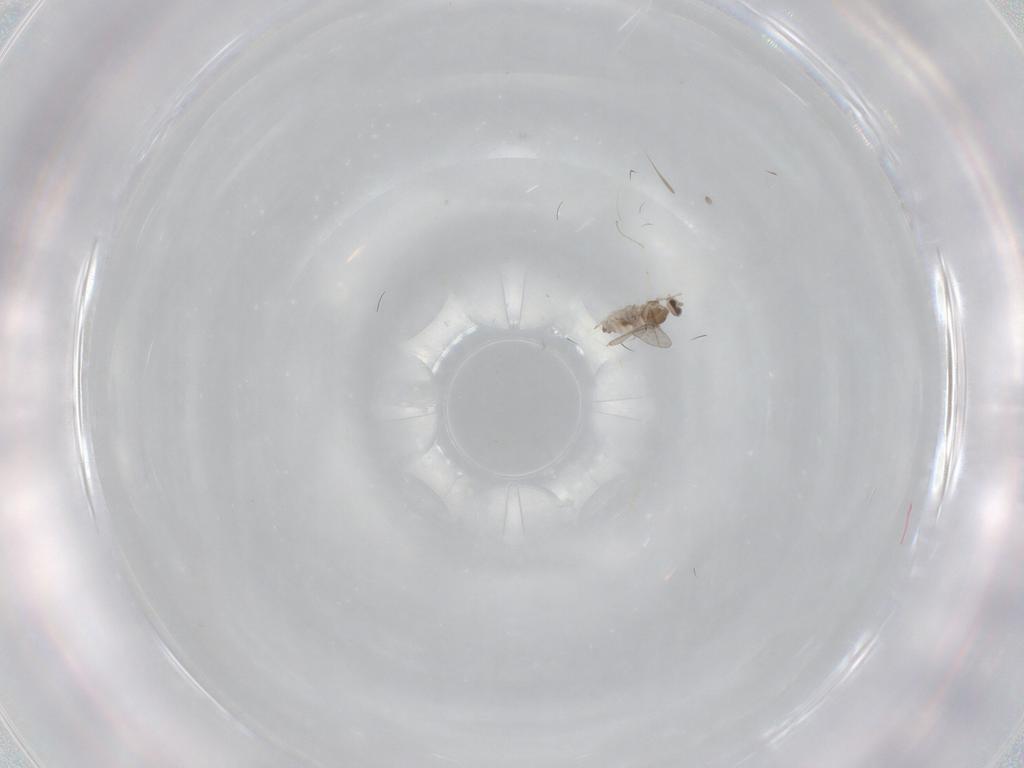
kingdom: Animalia
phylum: Arthropoda
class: Insecta
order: Diptera
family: Cecidomyiidae
